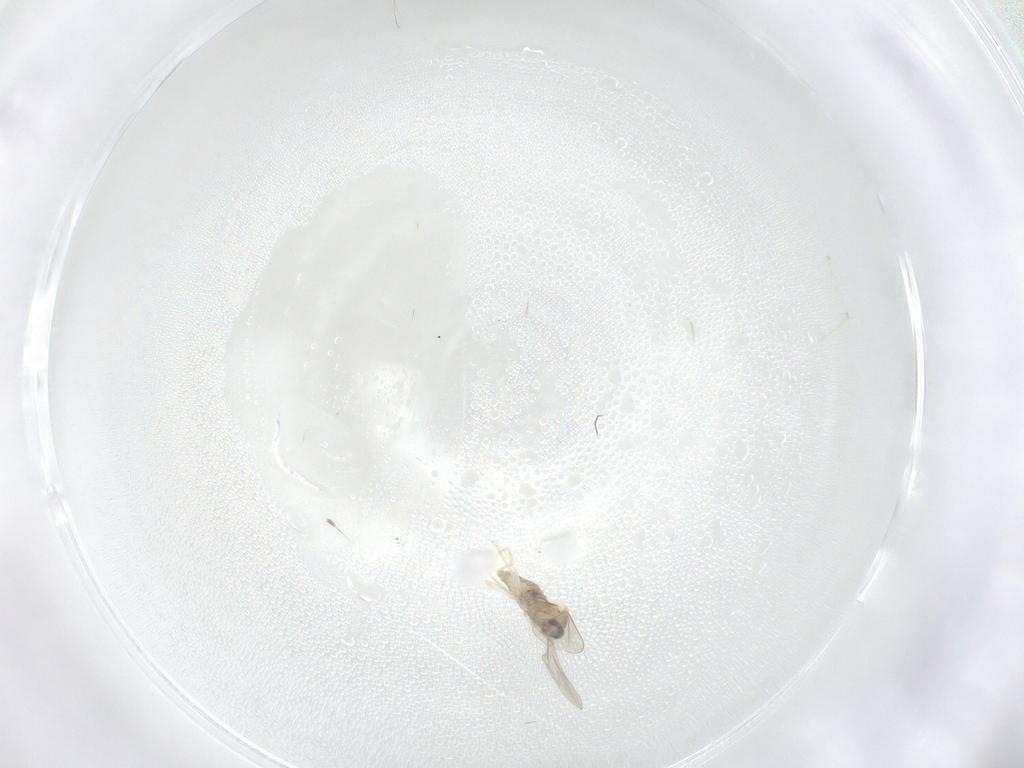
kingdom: Animalia
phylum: Arthropoda
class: Insecta
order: Diptera
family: Cecidomyiidae
